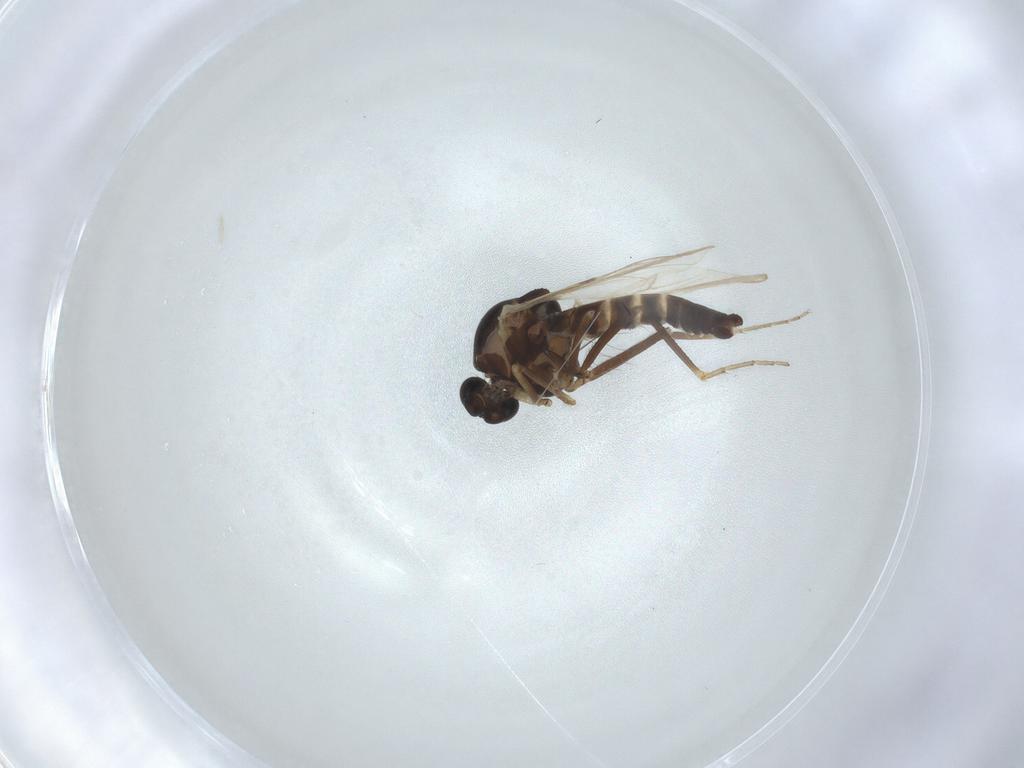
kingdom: Animalia
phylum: Arthropoda
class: Insecta
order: Diptera
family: Ceratopogonidae
